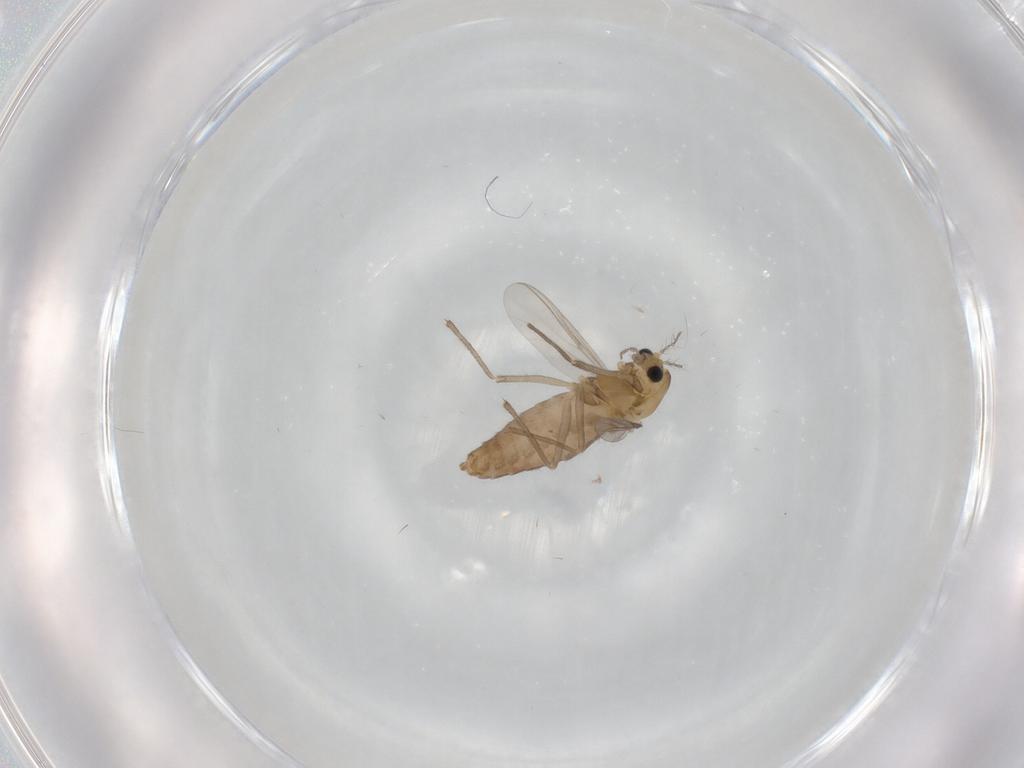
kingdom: Animalia
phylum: Arthropoda
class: Insecta
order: Diptera
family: Chironomidae
